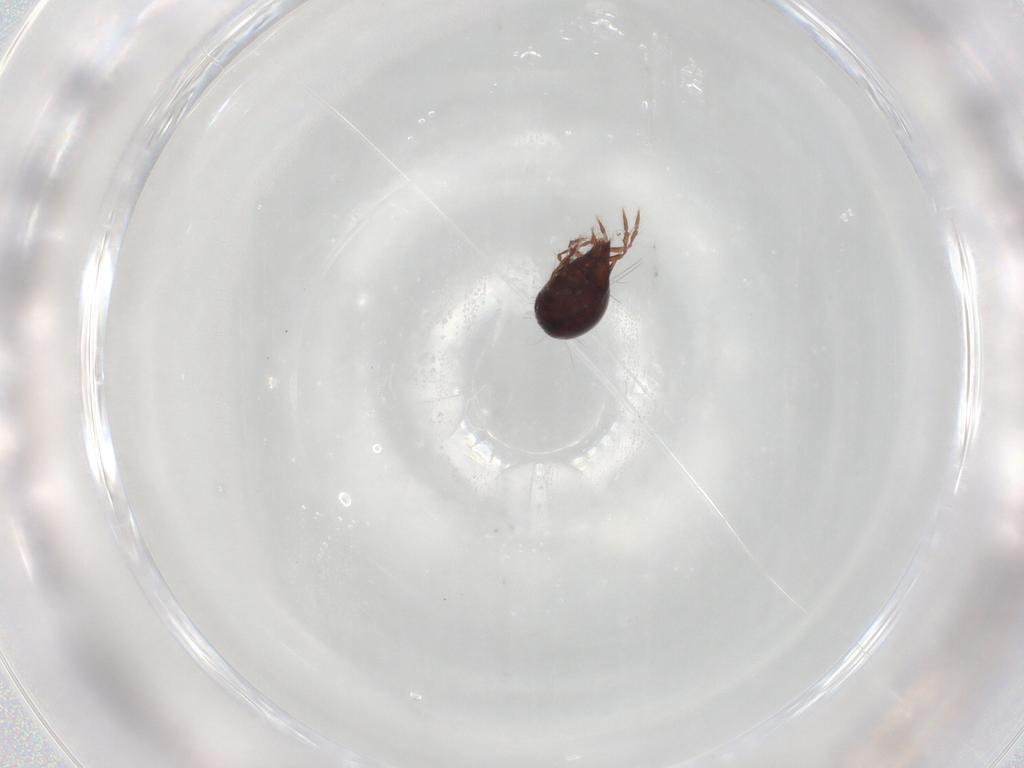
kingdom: Animalia
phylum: Arthropoda
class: Arachnida
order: Sarcoptiformes
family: Ceratoppiidae
